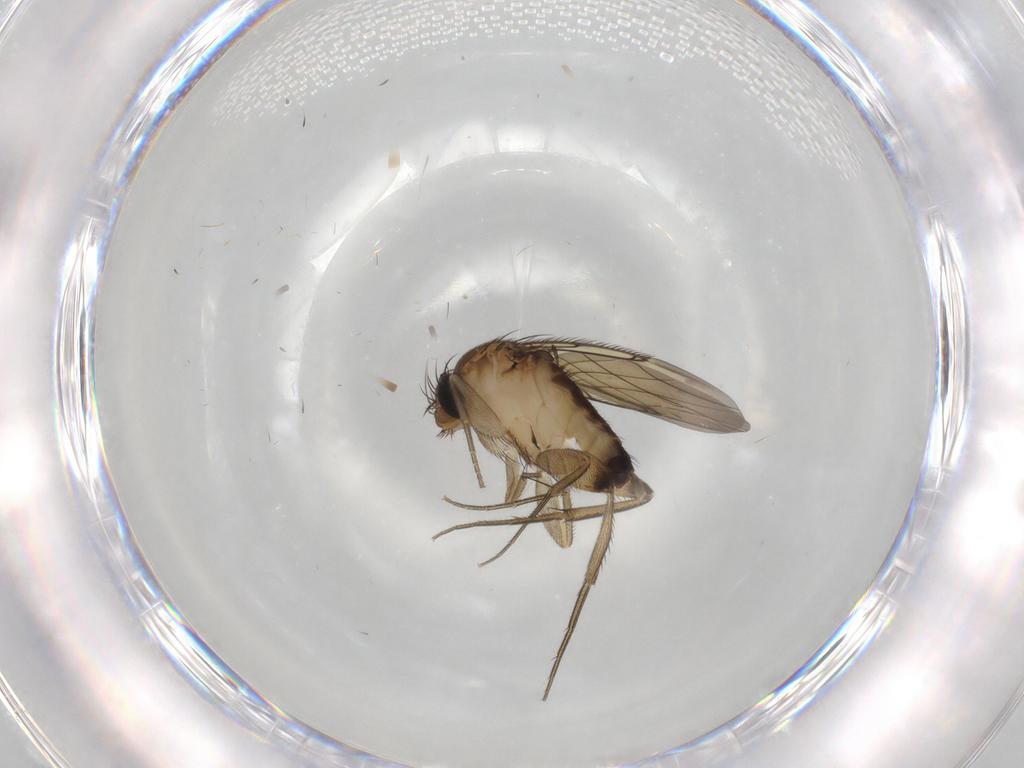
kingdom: Animalia
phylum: Arthropoda
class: Insecta
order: Diptera
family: Phoridae
